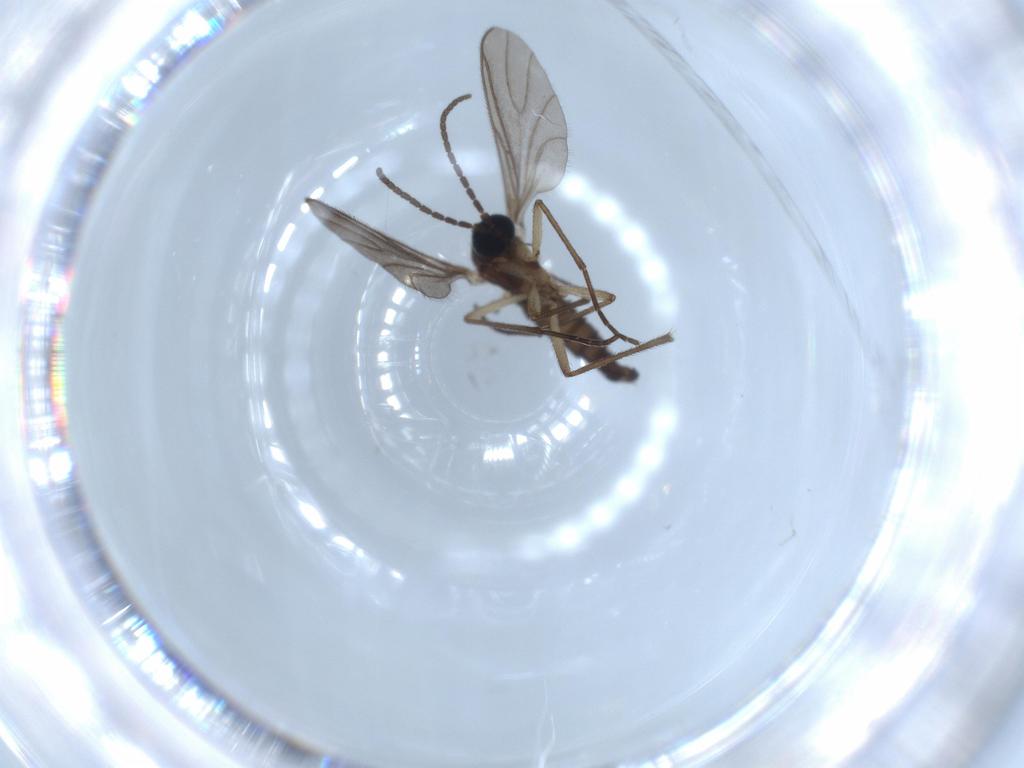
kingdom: Animalia
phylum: Arthropoda
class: Insecta
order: Diptera
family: Sciaridae
